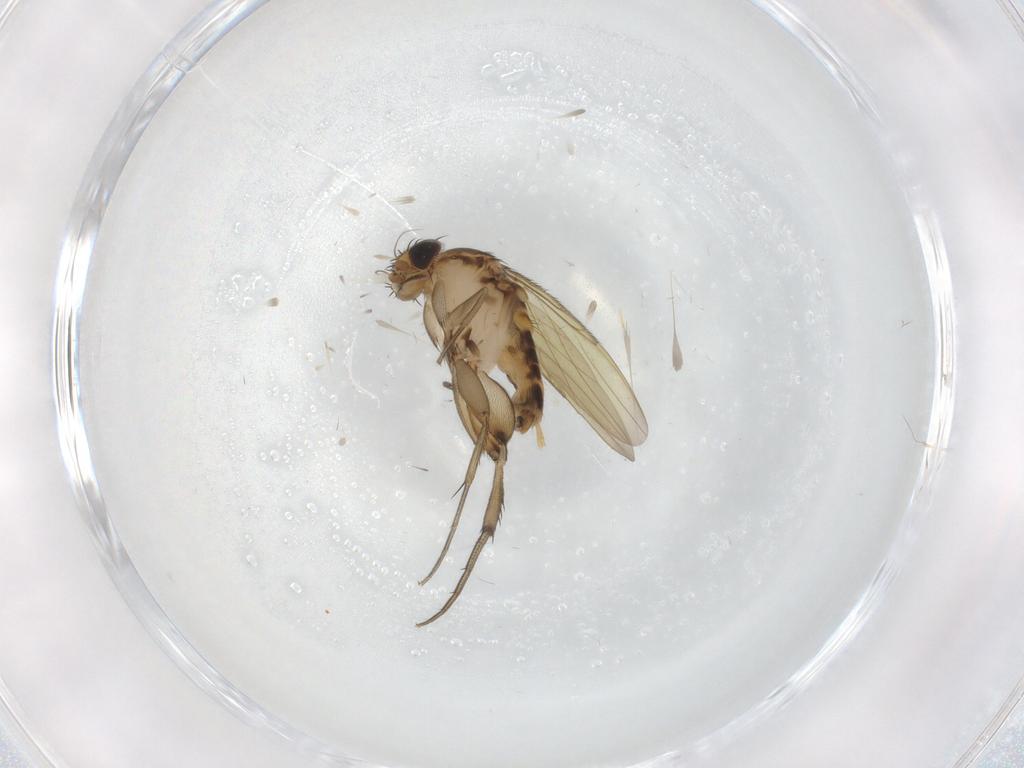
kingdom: Animalia
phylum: Arthropoda
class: Insecta
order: Diptera
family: Phoridae
